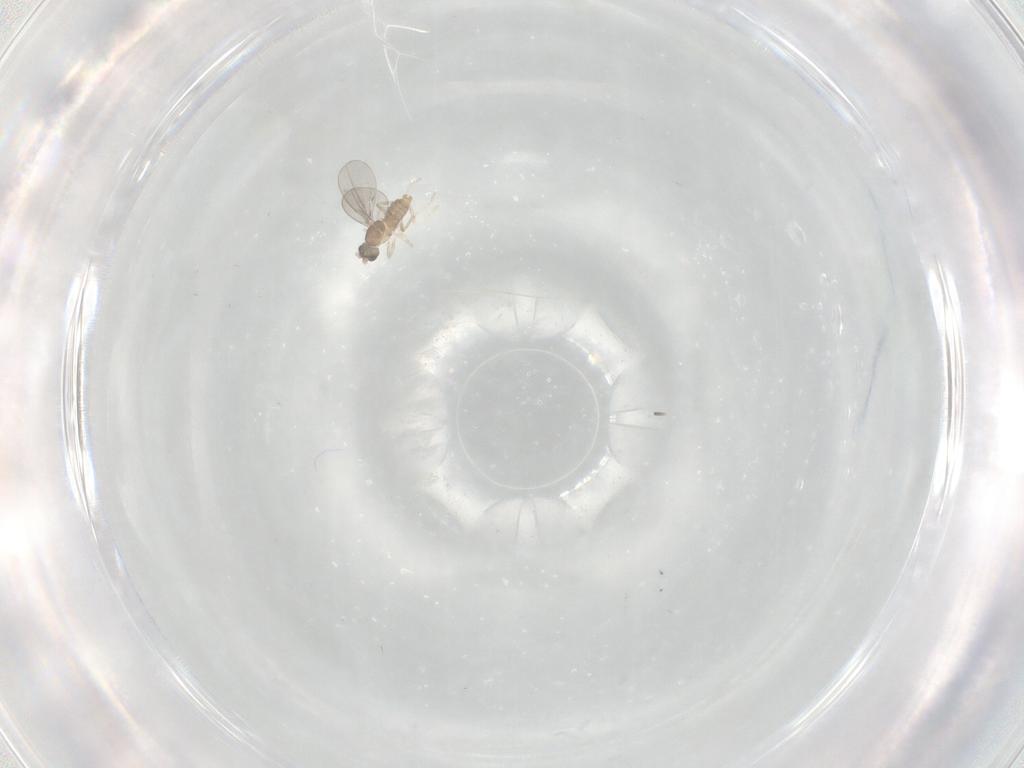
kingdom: Animalia
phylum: Arthropoda
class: Insecta
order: Diptera
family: Cecidomyiidae
